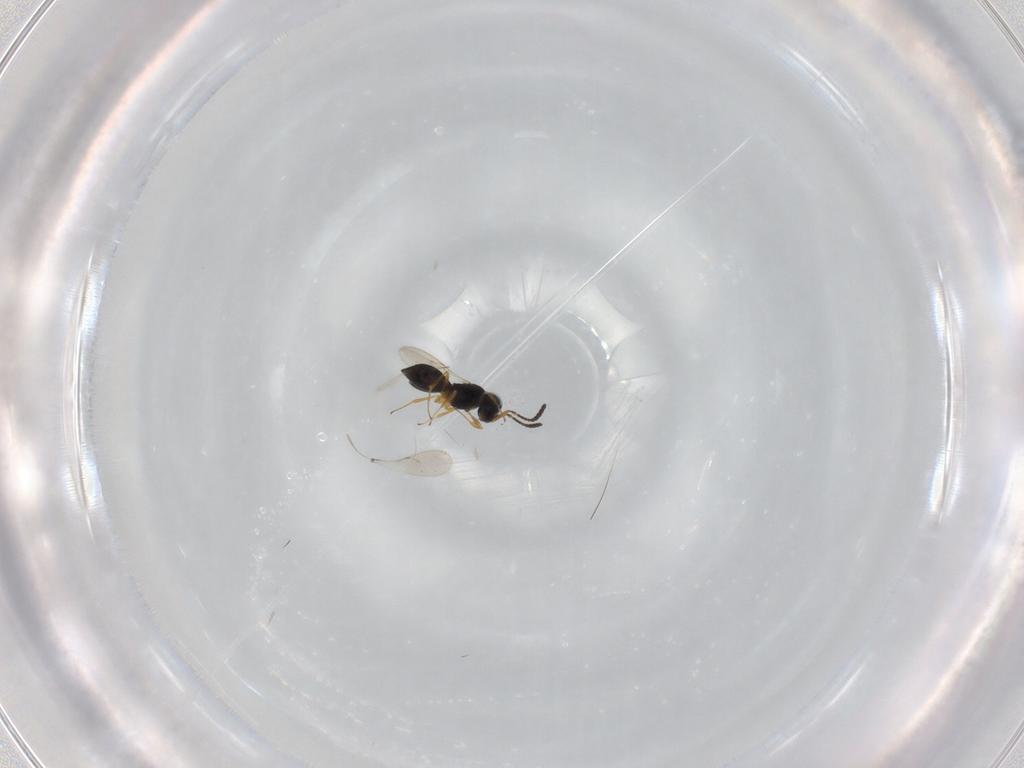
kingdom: Animalia
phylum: Arthropoda
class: Insecta
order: Hymenoptera
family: Scelionidae
